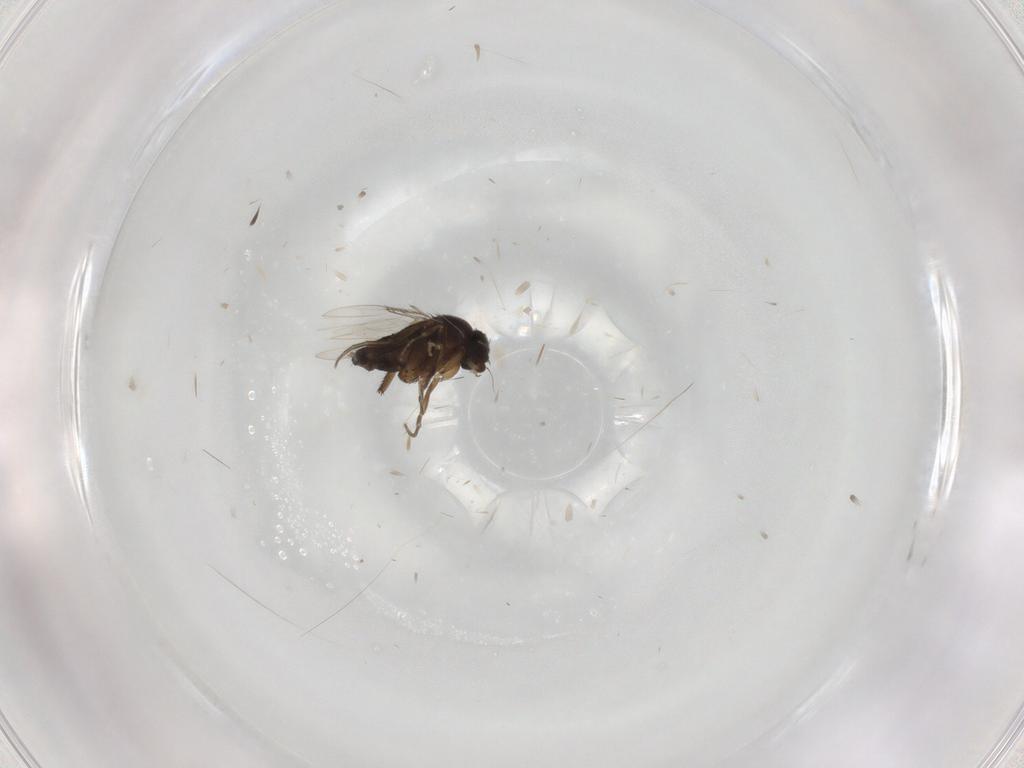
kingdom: Animalia
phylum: Arthropoda
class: Insecta
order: Diptera
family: Phoridae
